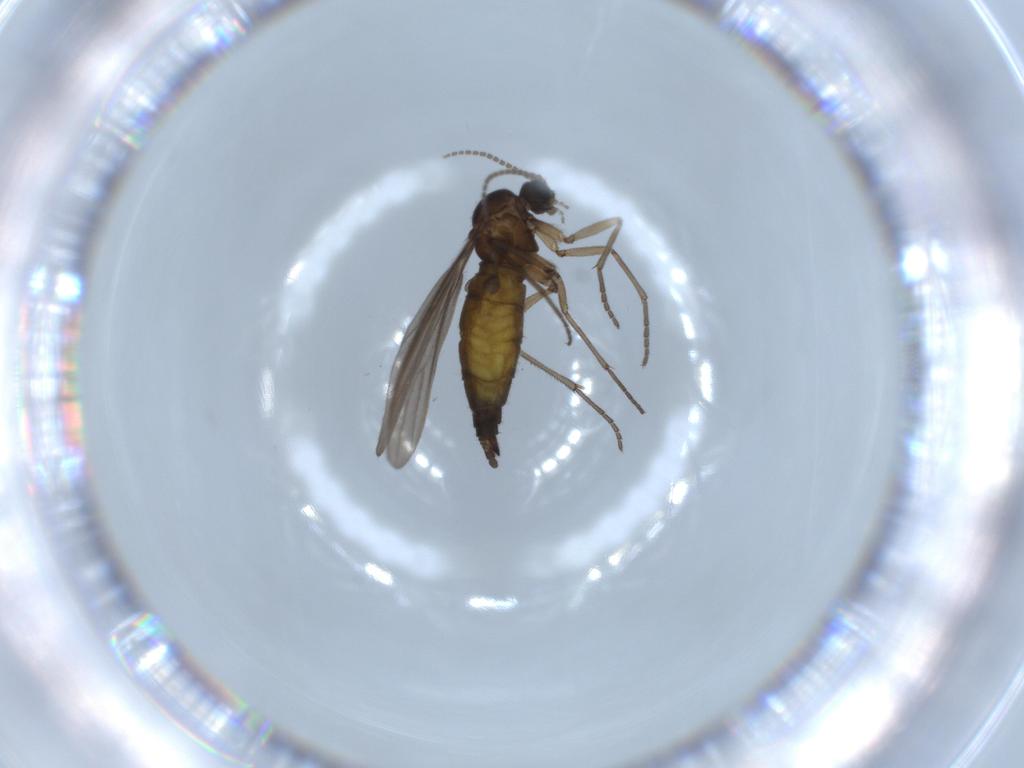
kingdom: Animalia
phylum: Arthropoda
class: Insecta
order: Diptera
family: Sciaridae
